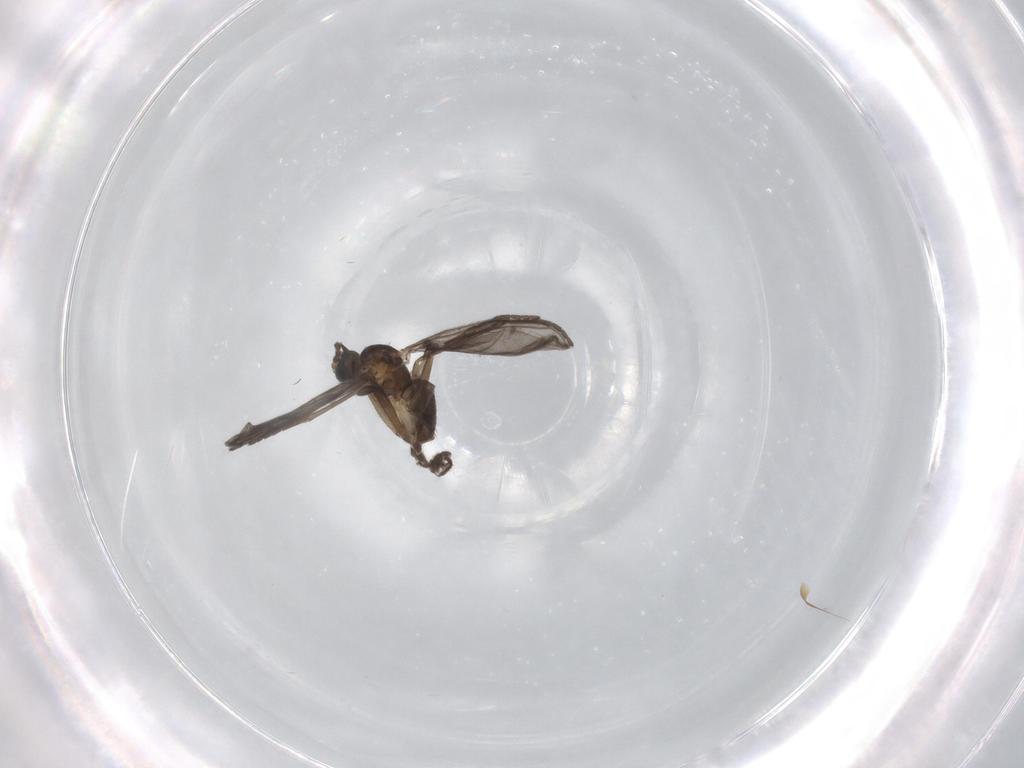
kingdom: Animalia
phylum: Arthropoda
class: Insecta
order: Diptera
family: Sciaridae
